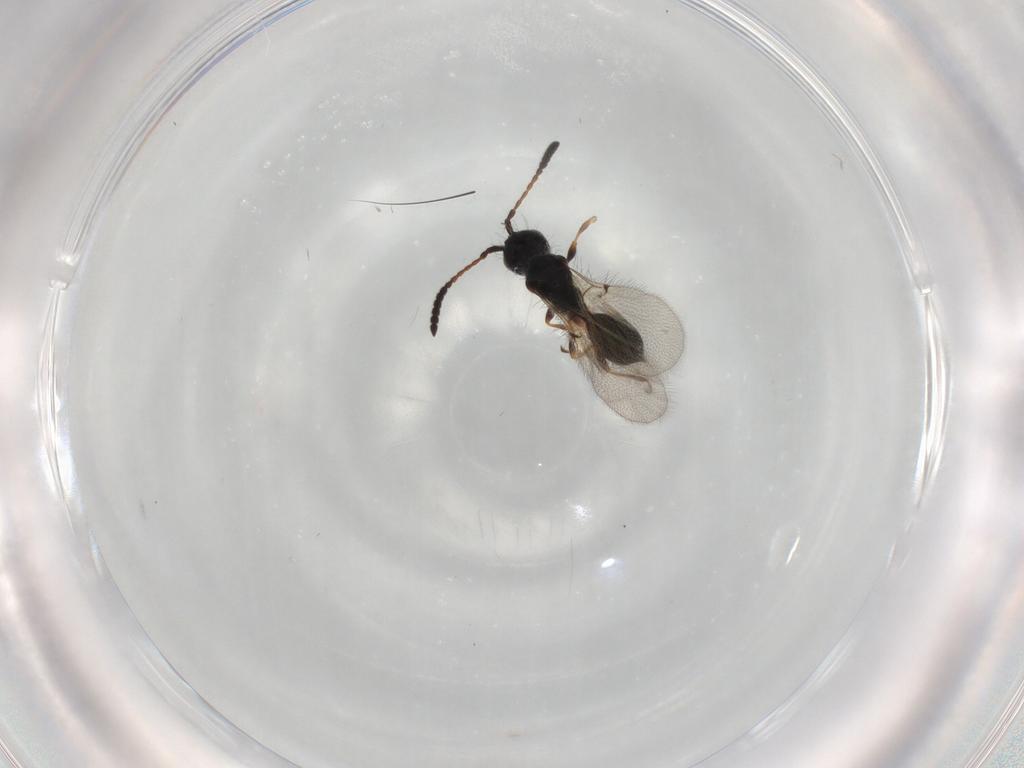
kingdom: Animalia
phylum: Arthropoda
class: Insecta
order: Hymenoptera
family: Diapriidae
